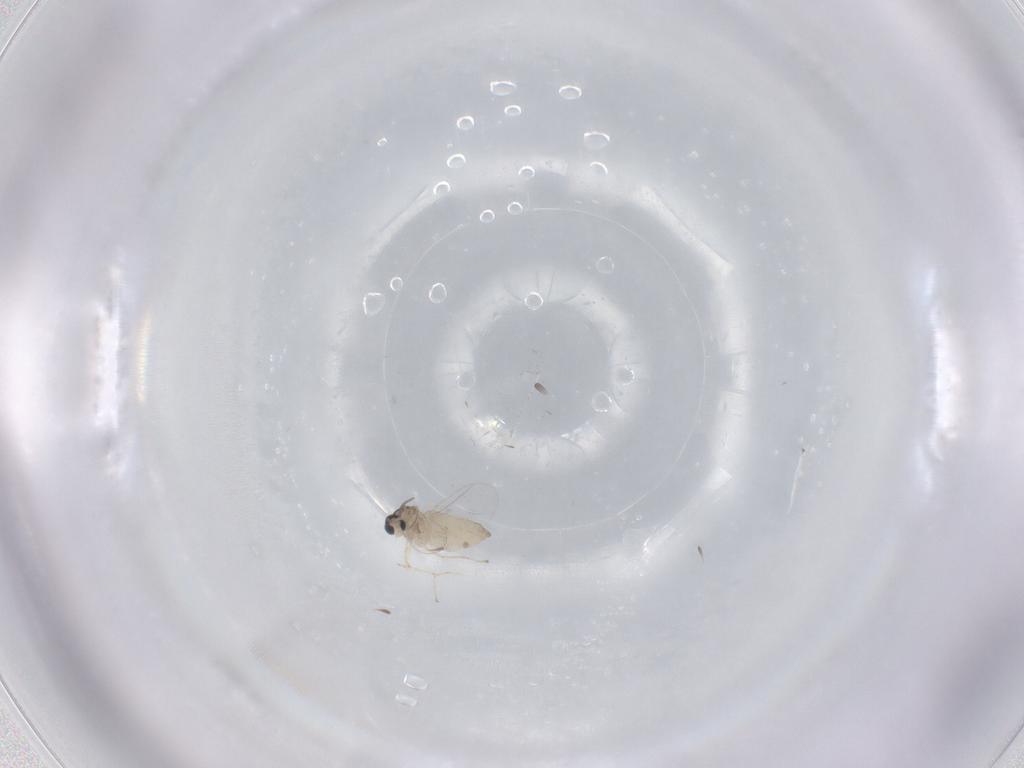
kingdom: Animalia
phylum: Arthropoda
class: Insecta
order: Diptera
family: Cecidomyiidae
